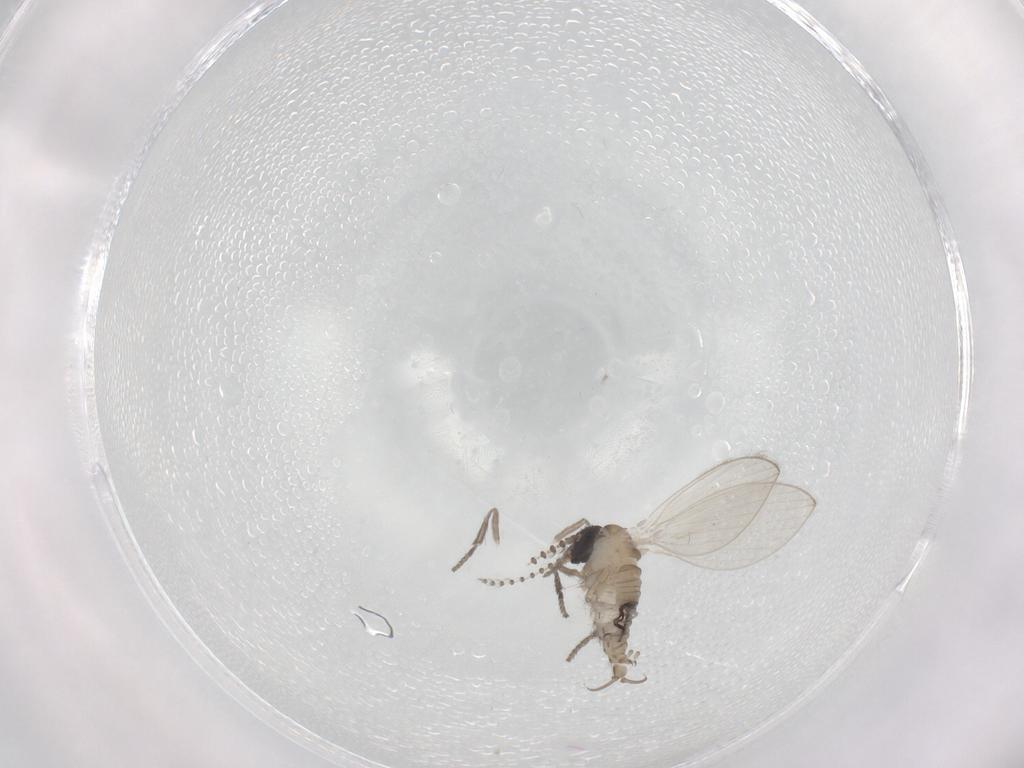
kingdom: Animalia
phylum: Arthropoda
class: Insecta
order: Diptera
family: Psychodidae
